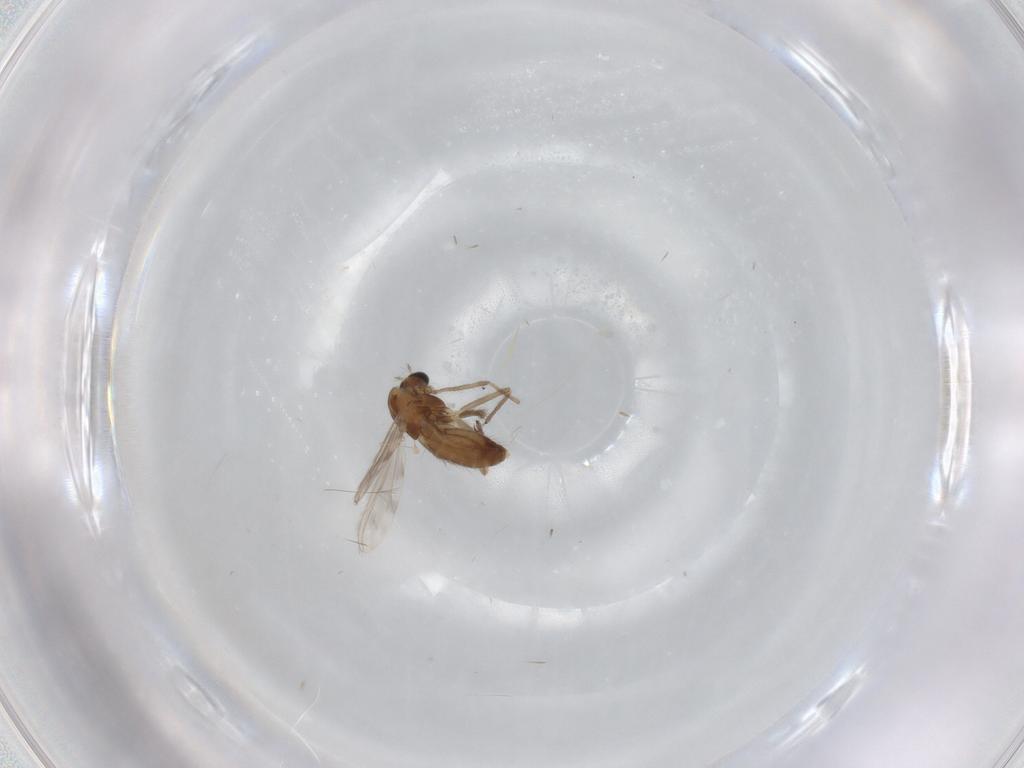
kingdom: Animalia
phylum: Arthropoda
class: Insecta
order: Diptera
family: Chironomidae
